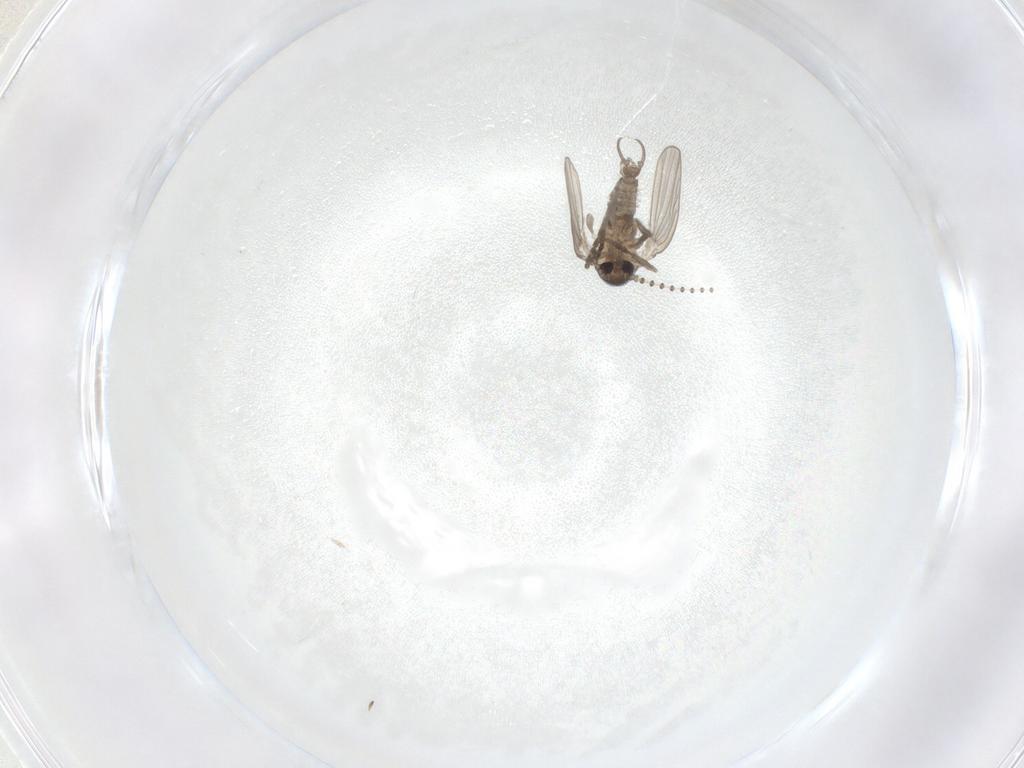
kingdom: Animalia
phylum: Arthropoda
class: Insecta
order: Diptera
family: Psychodidae
